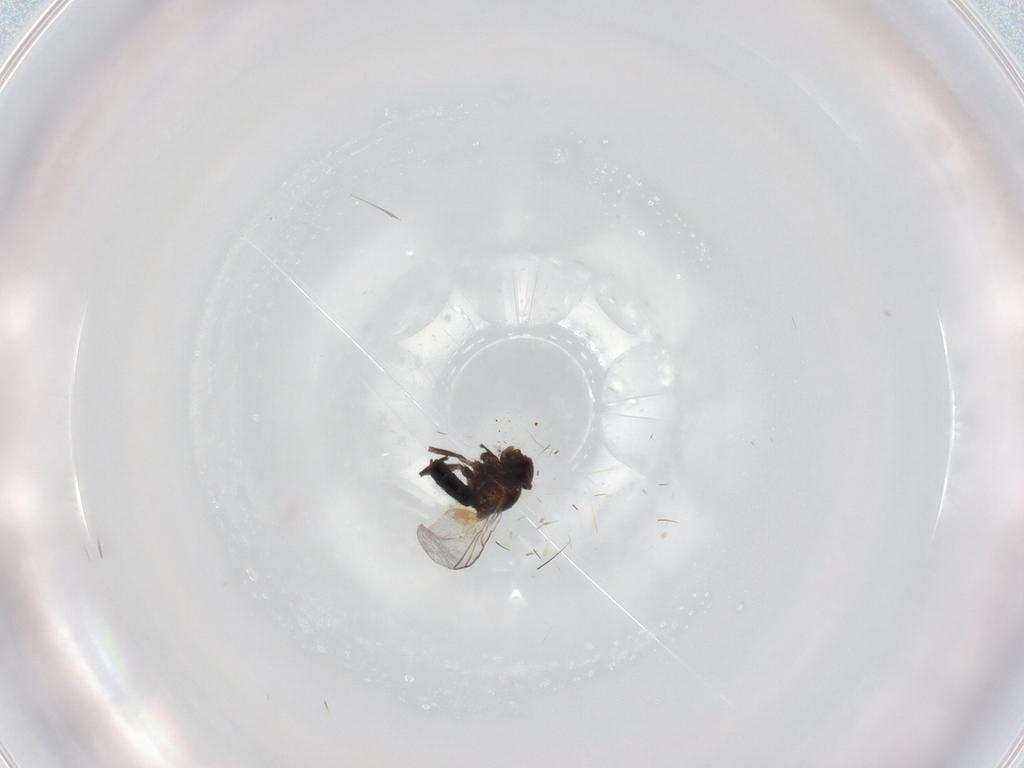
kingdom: Animalia
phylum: Arthropoda
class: Insecta
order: Diptera
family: Agromyzidae
